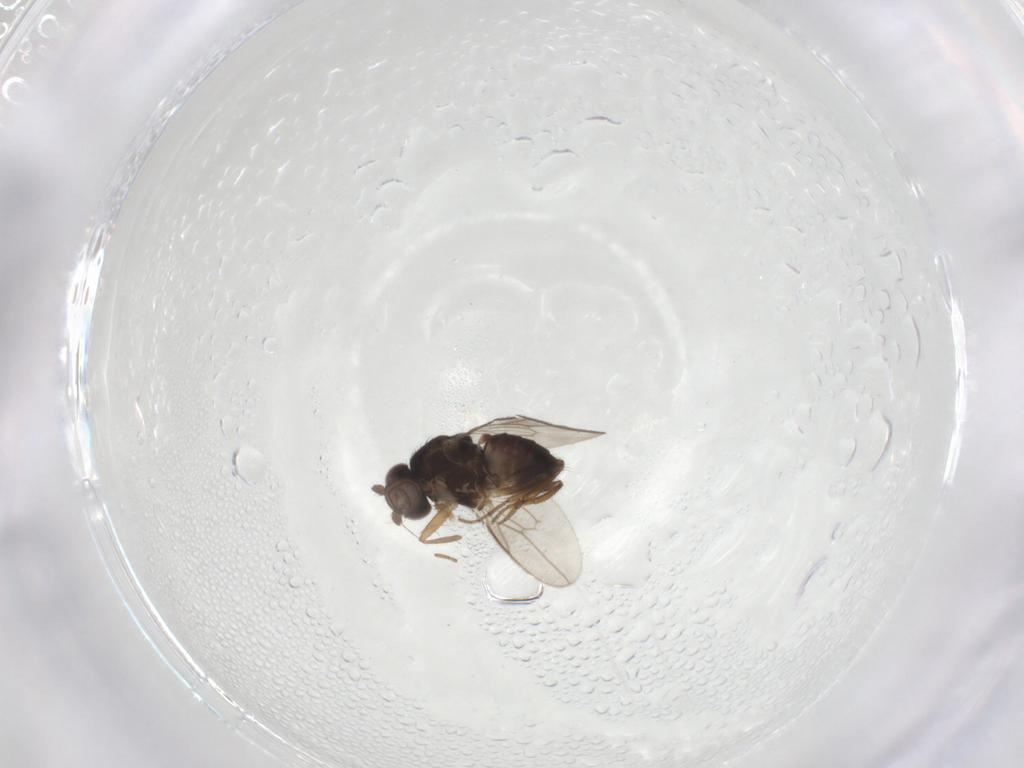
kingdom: Animalia
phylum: Arthropoda
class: Insecta
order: Diptera
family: Sphaeroceridae
